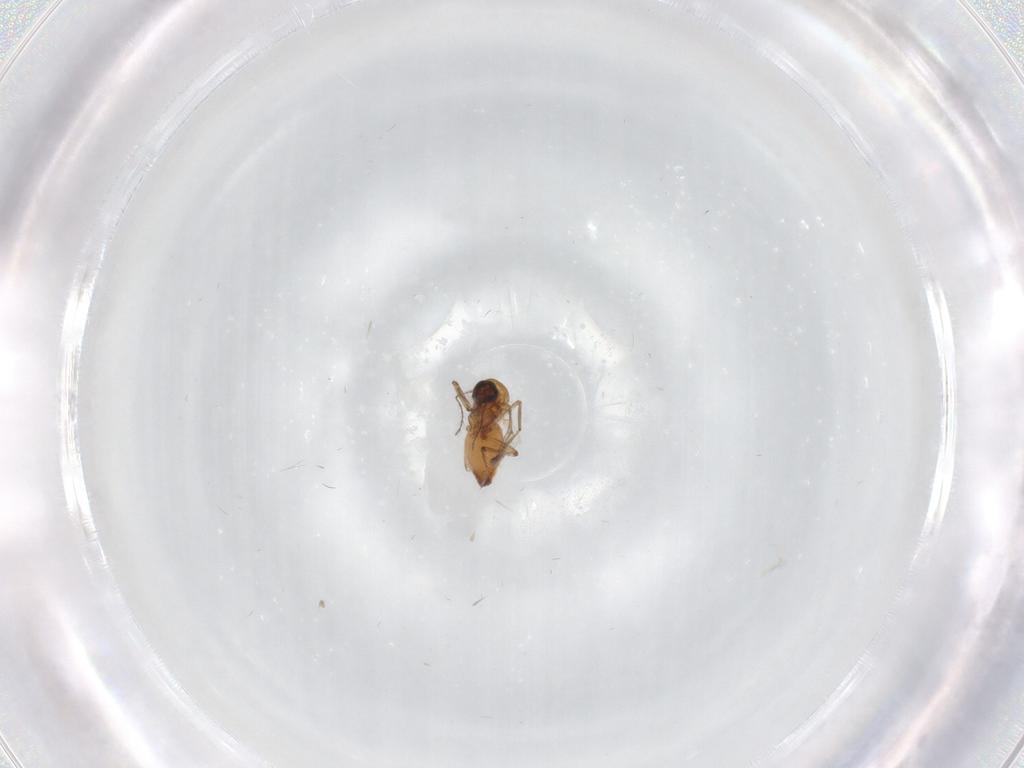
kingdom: Animalia
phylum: Arthropoda
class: Insecta
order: Diptera
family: Ceratopogonidae
